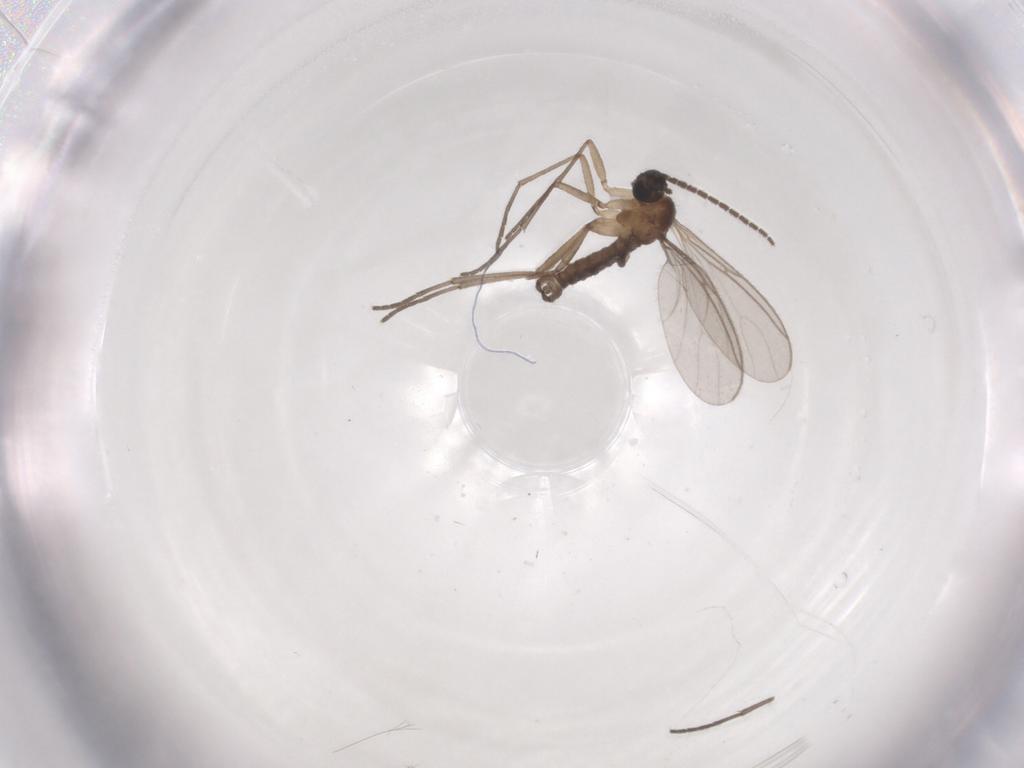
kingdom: Animalia
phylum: Arthropoda
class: Insecta
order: Diptera
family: Sciaridae
